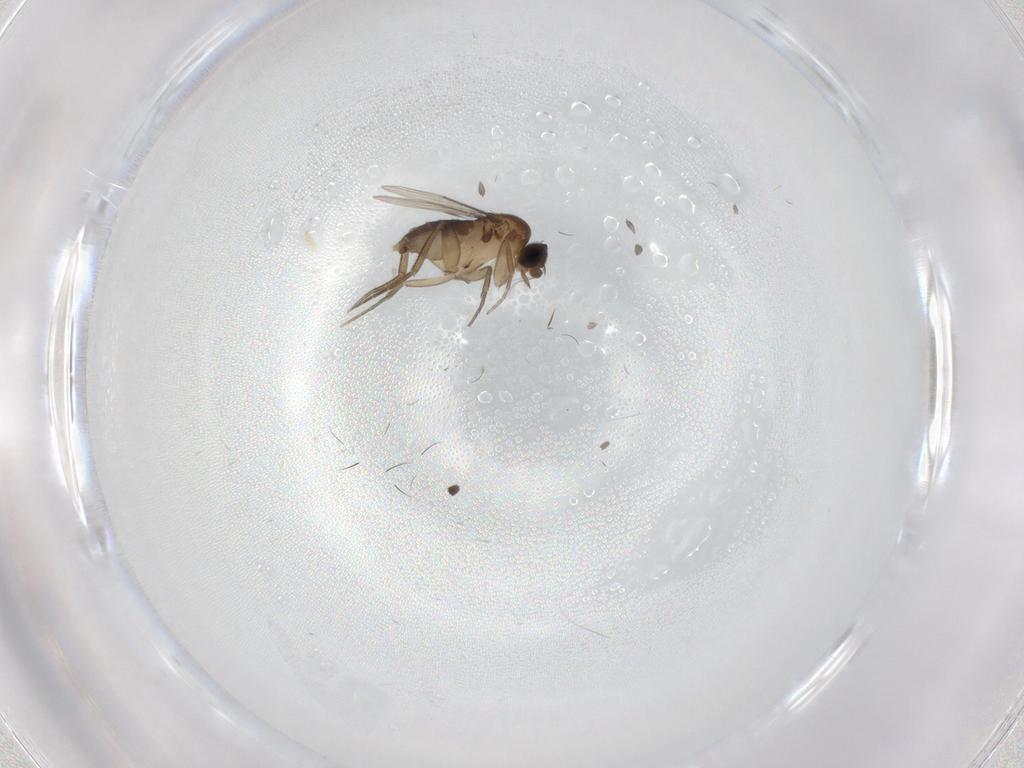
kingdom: Animalia
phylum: Arthropoda
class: Insecta
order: Diptera
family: Phoridae
